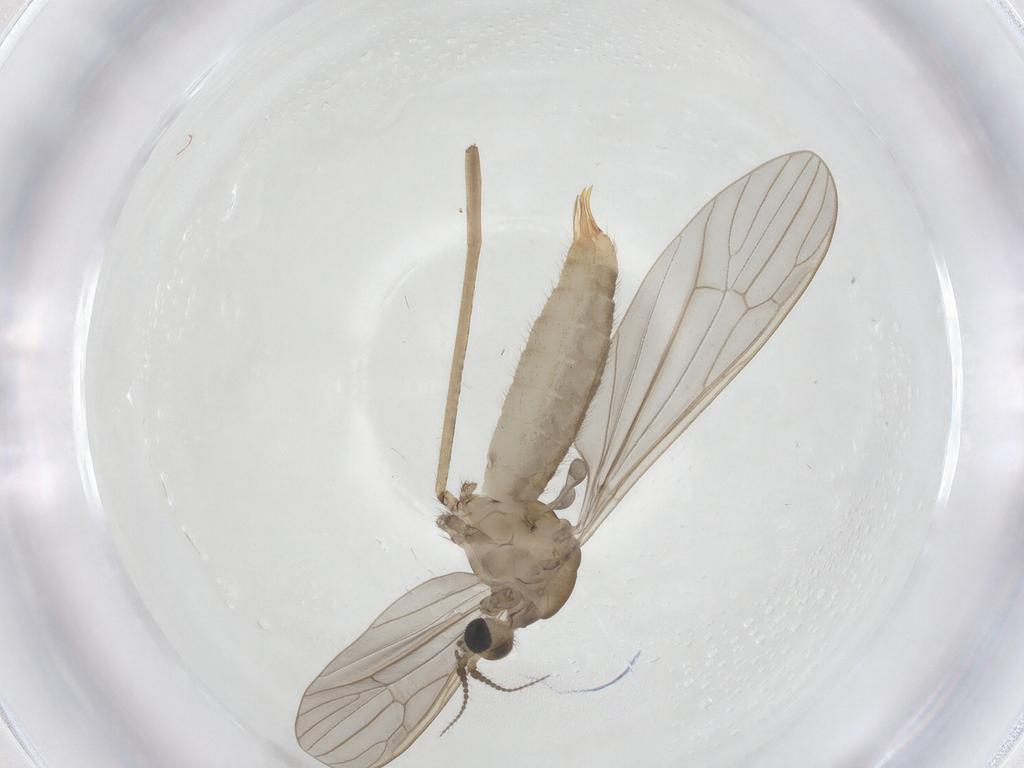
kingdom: Animalia
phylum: Arthropoda
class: Insecta
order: Diptera
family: Limoniidae
